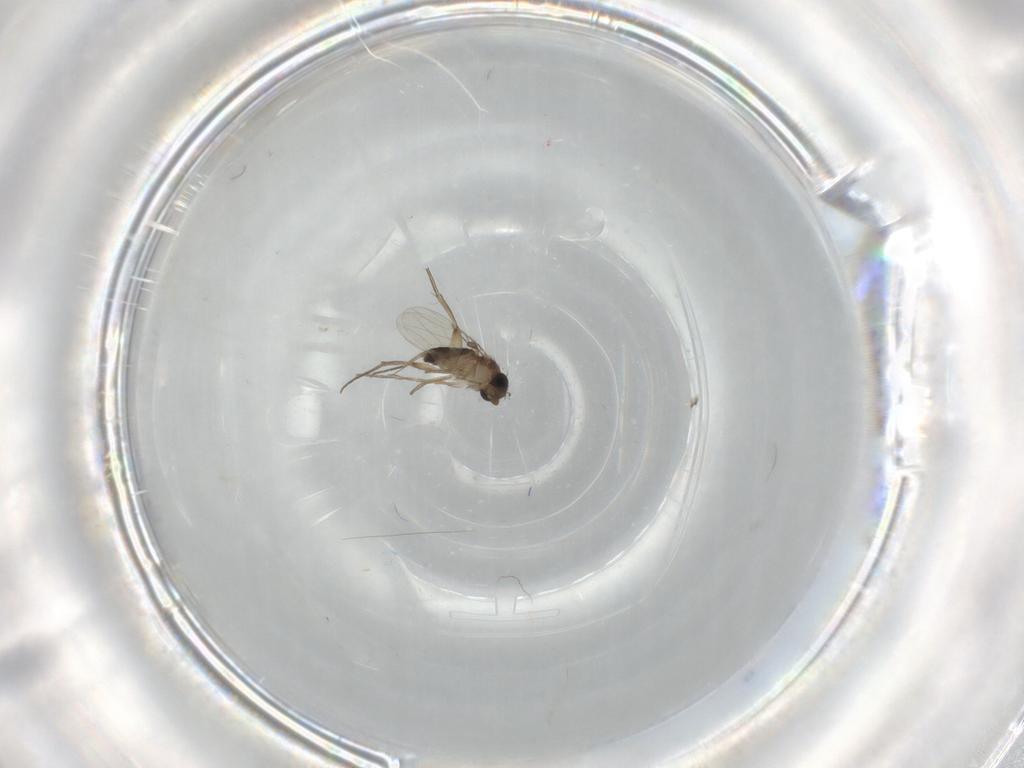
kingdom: Animalia
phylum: Arthropoda
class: Insecta
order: Diptera
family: Phoridae
